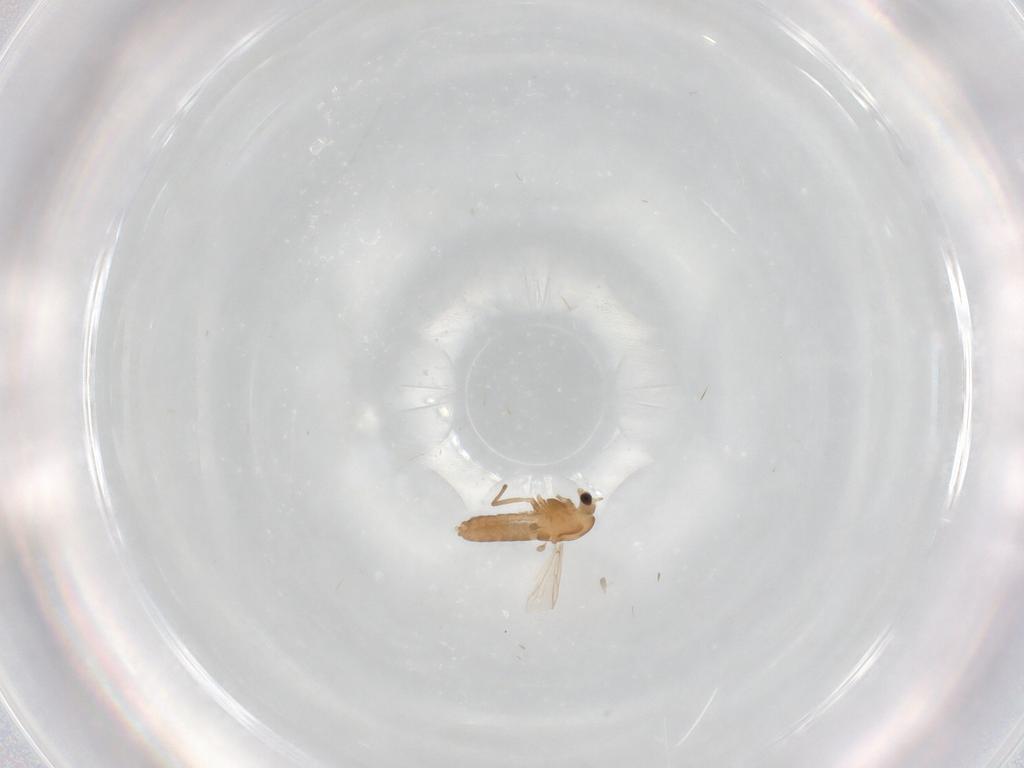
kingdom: Animalia
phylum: Arthropoda
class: Insecta
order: Diptera
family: Chironomidae
